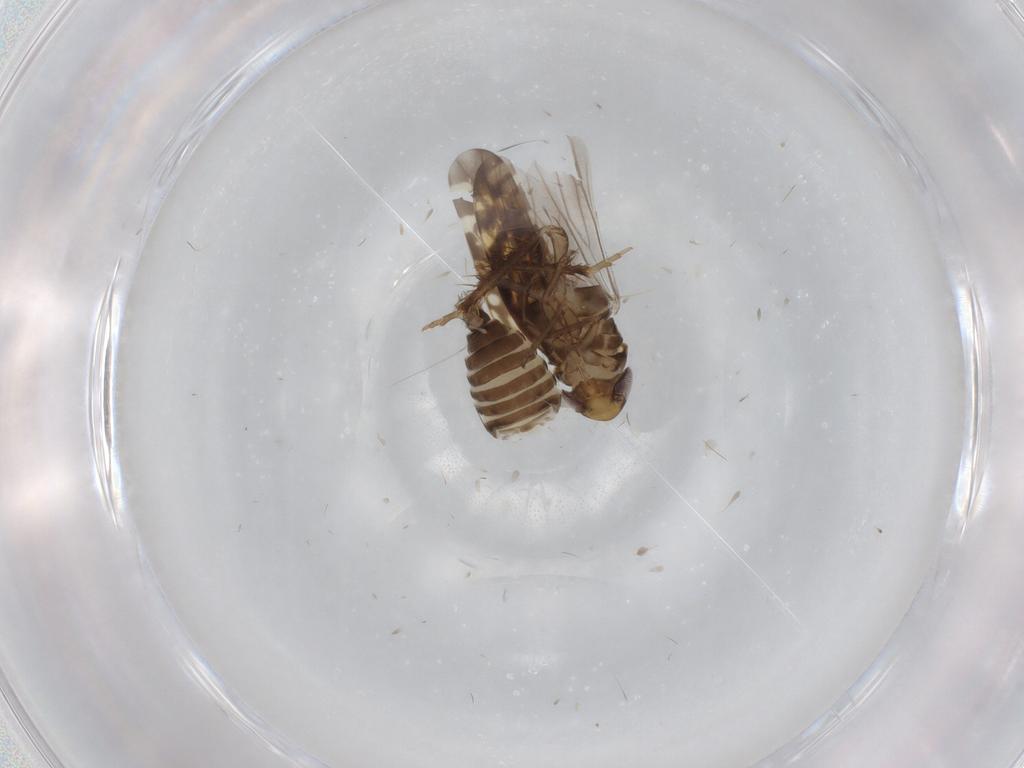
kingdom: Animalia
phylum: Arthropoda
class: Insecta
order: Hemiptera
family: Cicadellidae
